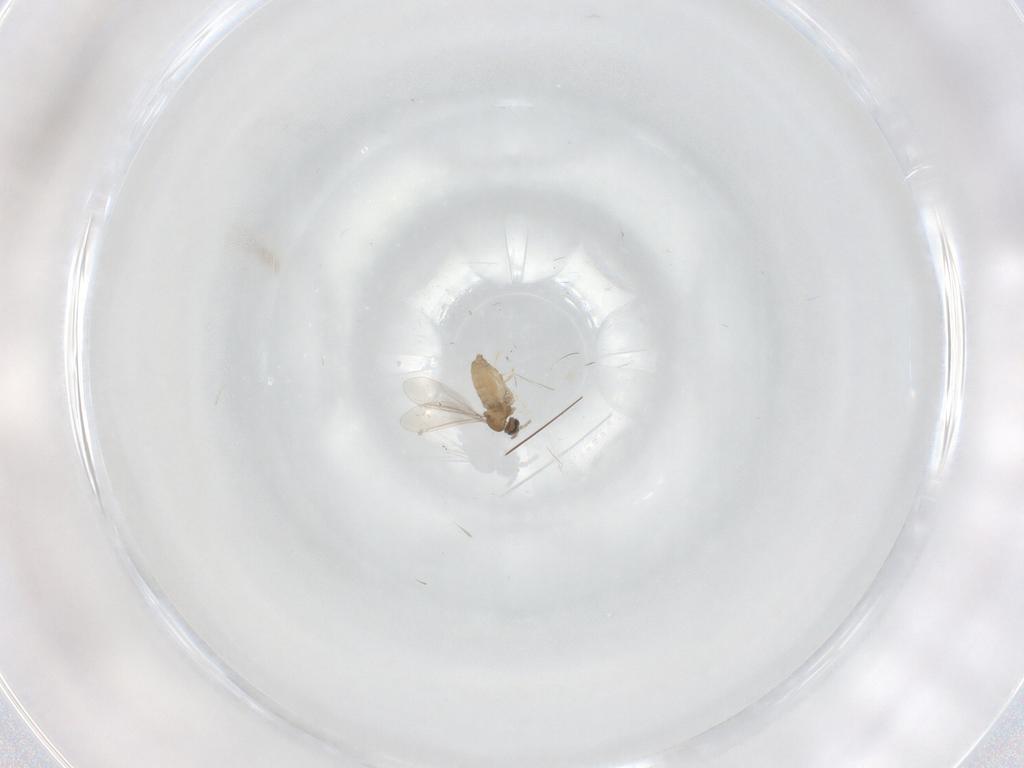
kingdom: Animalia
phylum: Arthropoda
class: Insecta
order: Diptera
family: Cecidomyiidae
